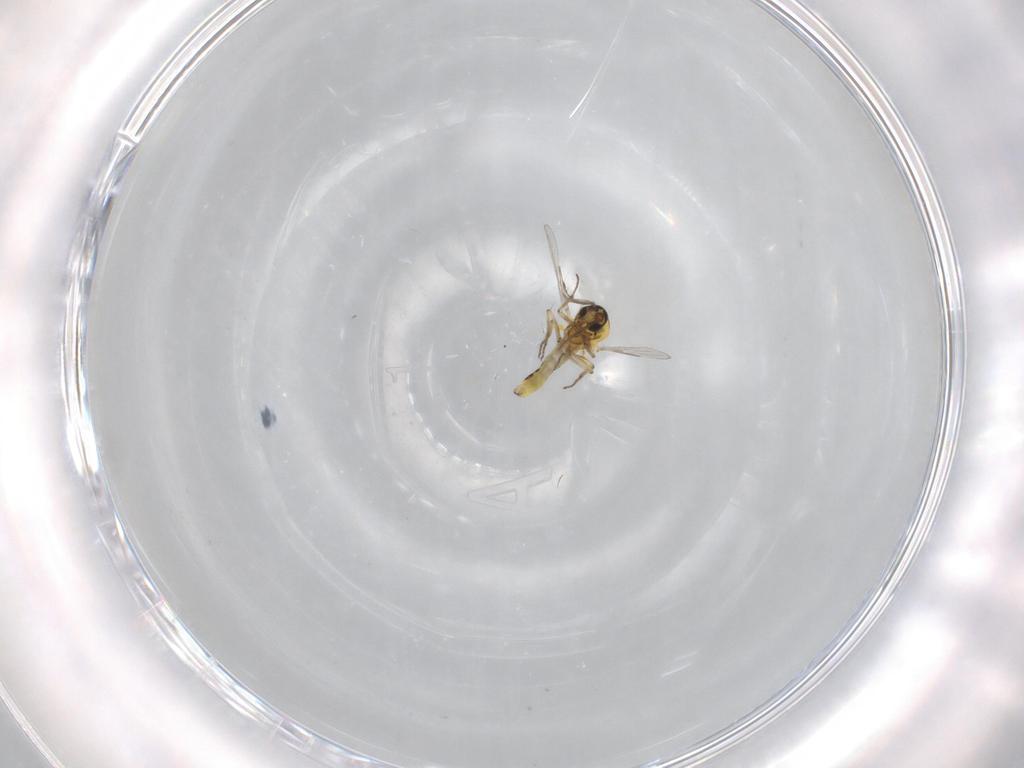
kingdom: Animalia
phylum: Arthropoda
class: Insecta
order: Diptera
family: Ceratopogonidae
